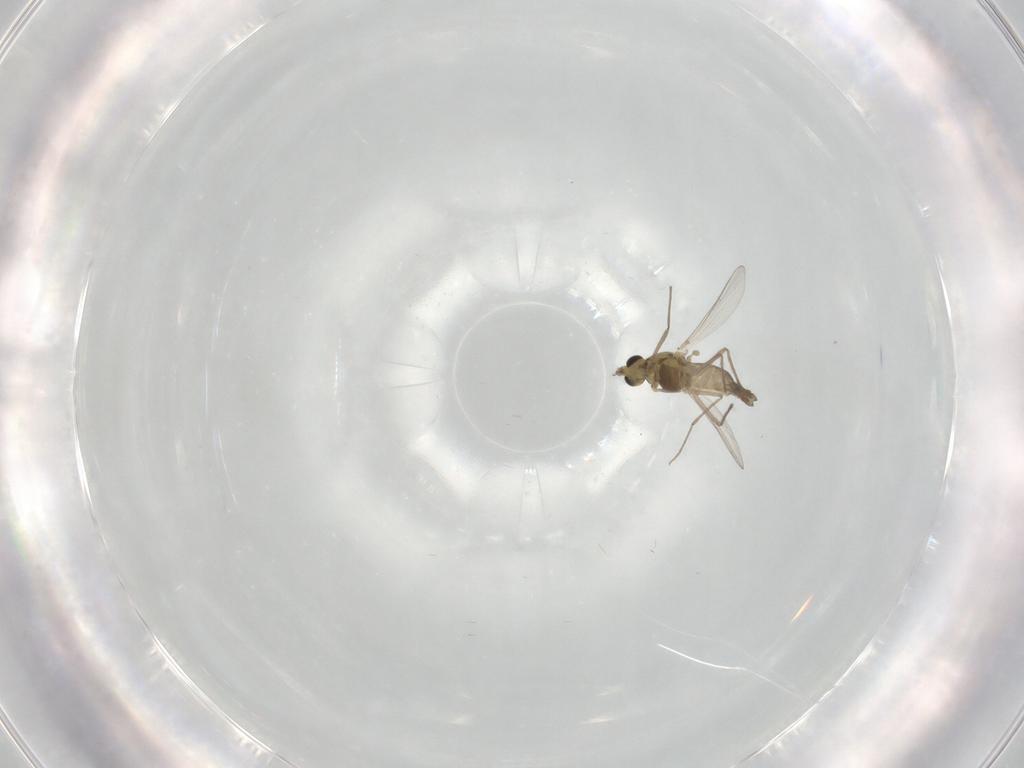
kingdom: Animalia
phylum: Arthropoda
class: Insecta
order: Diptera
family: Chironomidae
